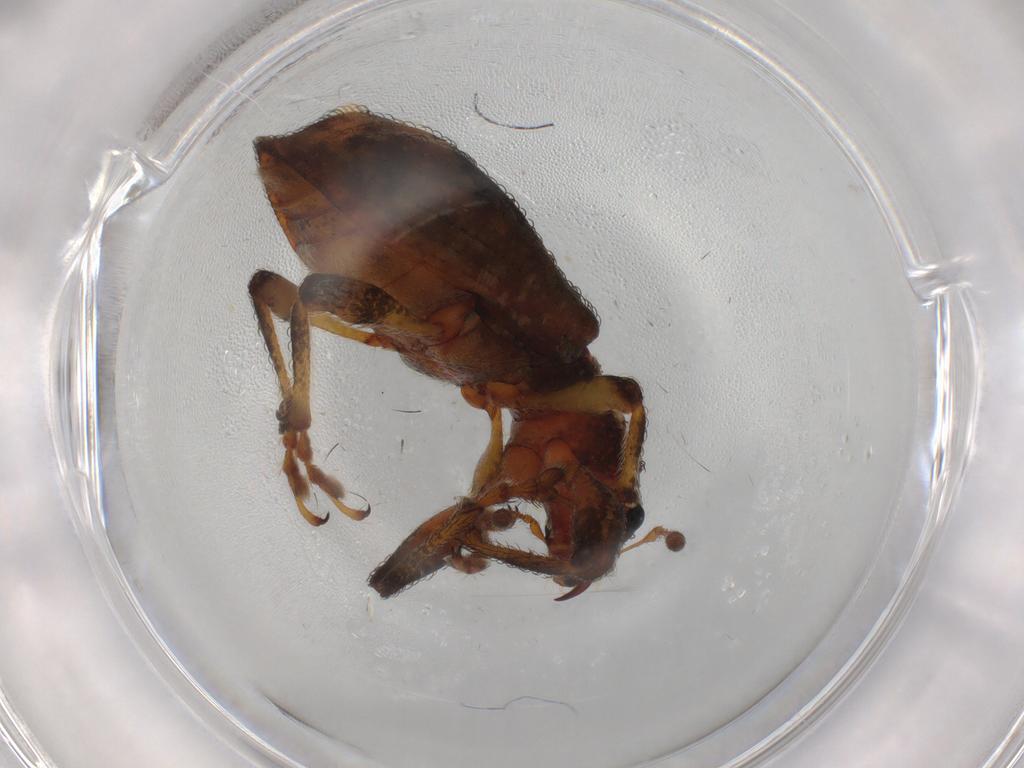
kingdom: Animalia
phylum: Arthropoda
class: Insecta
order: Coleoptera
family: Curculionidae
